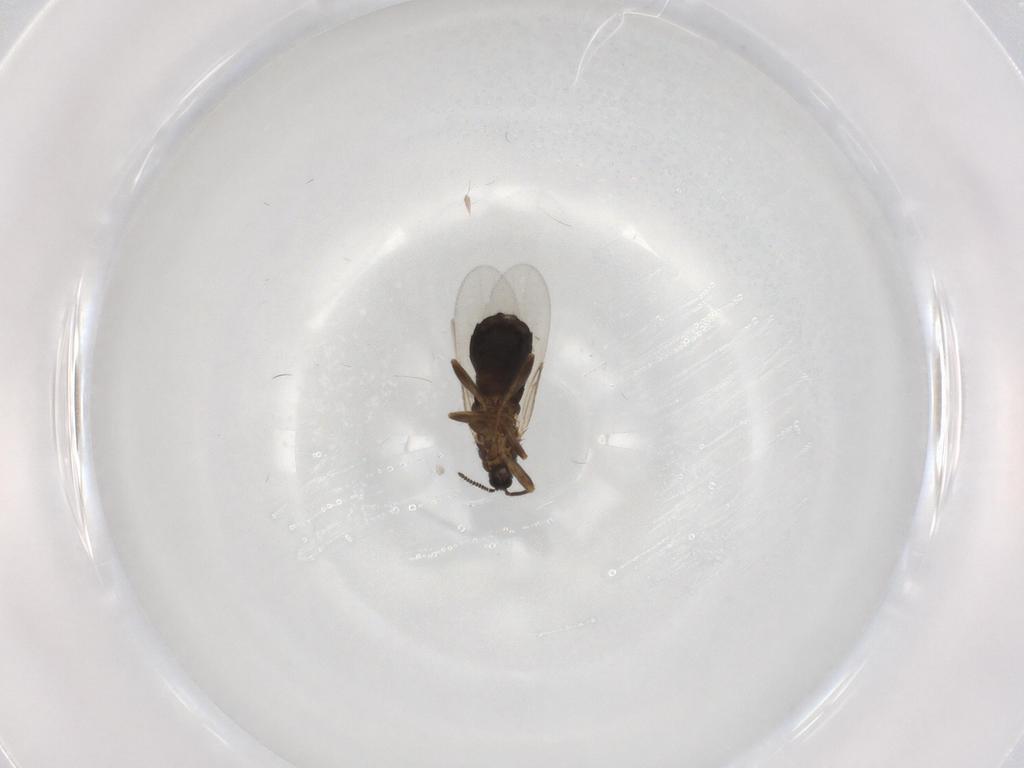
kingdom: Animalia
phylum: Arthropoda
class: Insecta
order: Diptera
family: Scatopsidae
